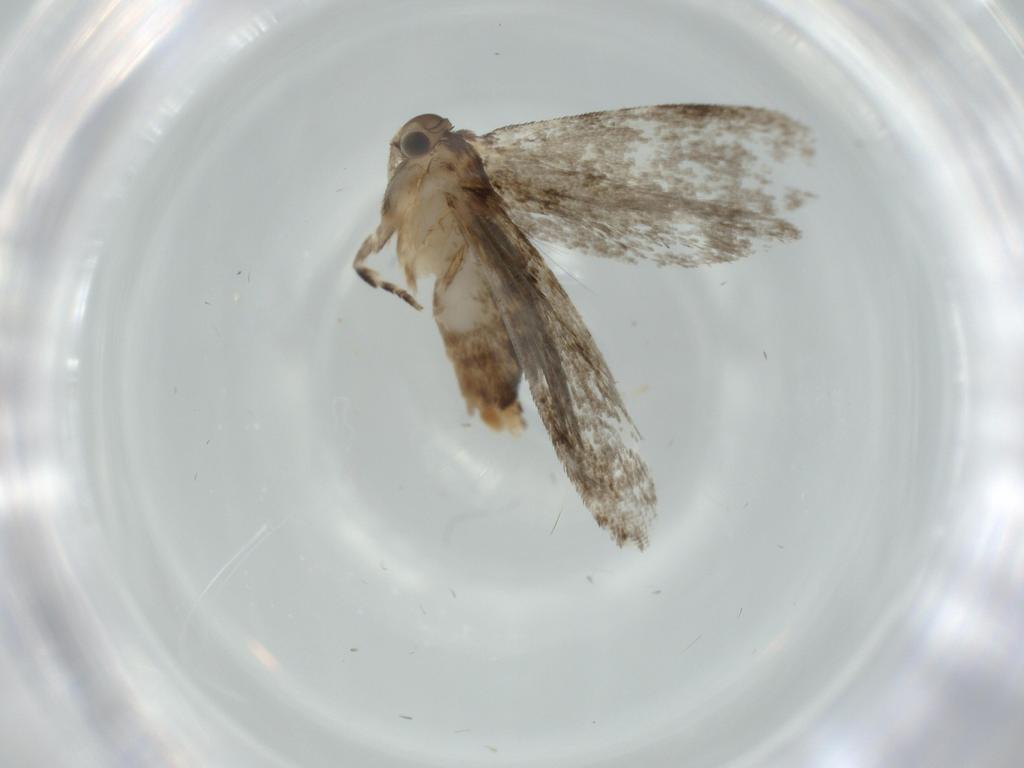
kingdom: Animalia
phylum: Arthropoda
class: Insecta
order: Lepidoptera
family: Tineidae
